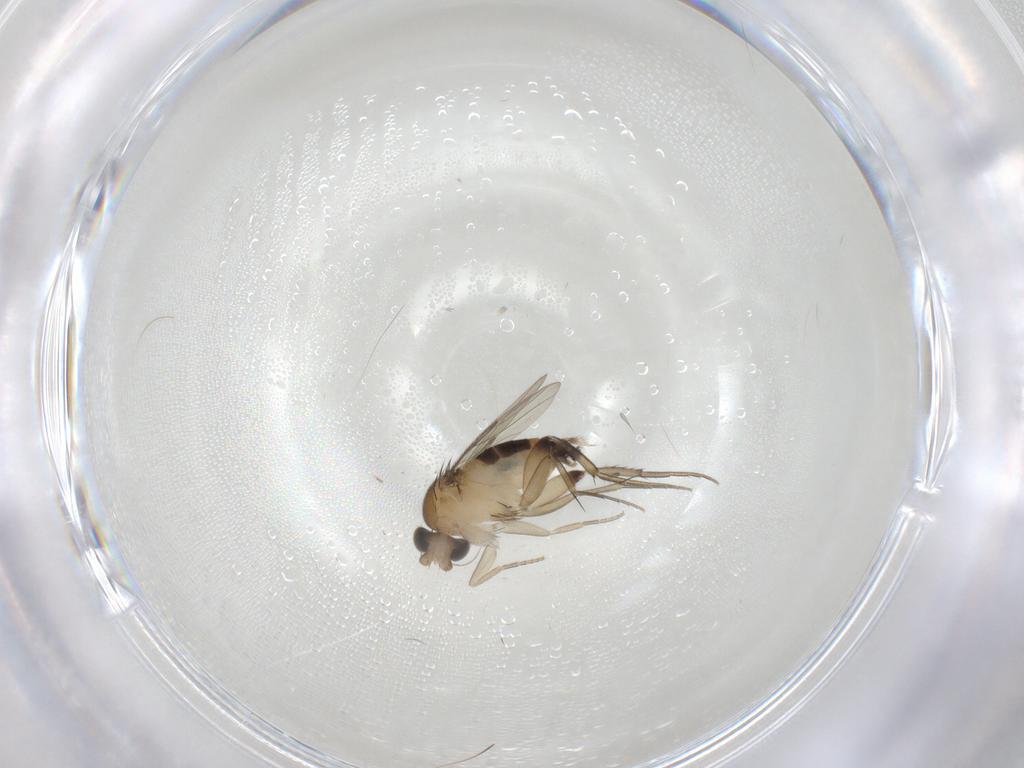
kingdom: Animalia
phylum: Arthropoda
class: Insecta
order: Diptera
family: Phoridae
